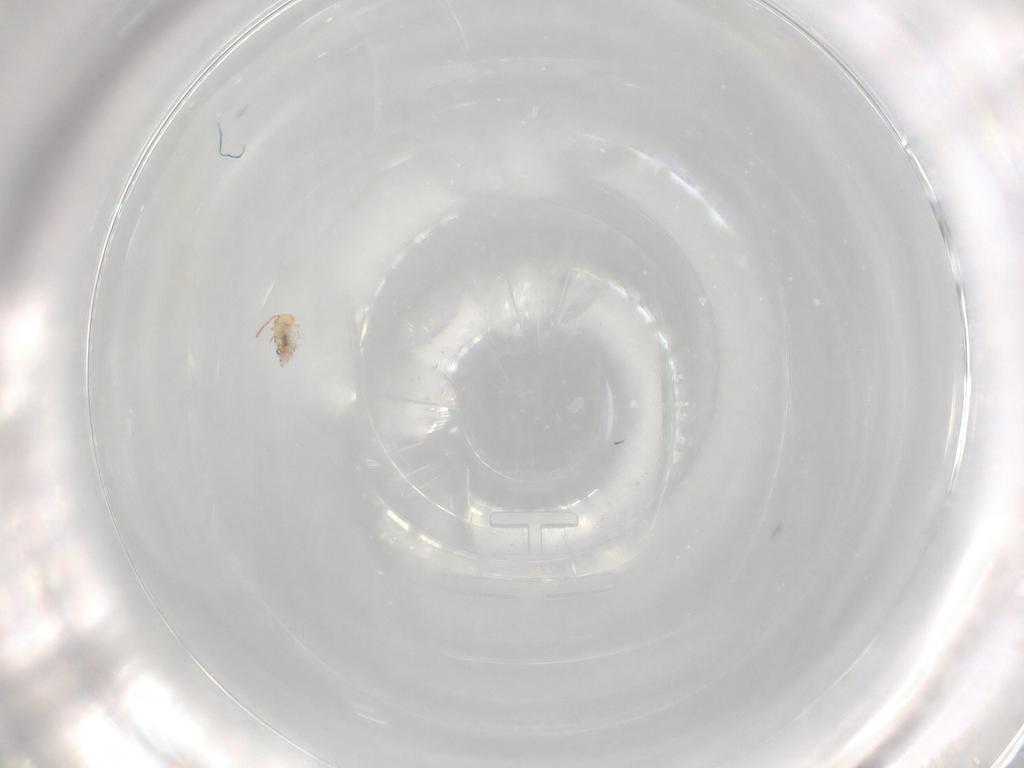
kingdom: Animalia
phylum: Arthropoda
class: Collembola
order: Symphypleona
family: Bourletiellidae
